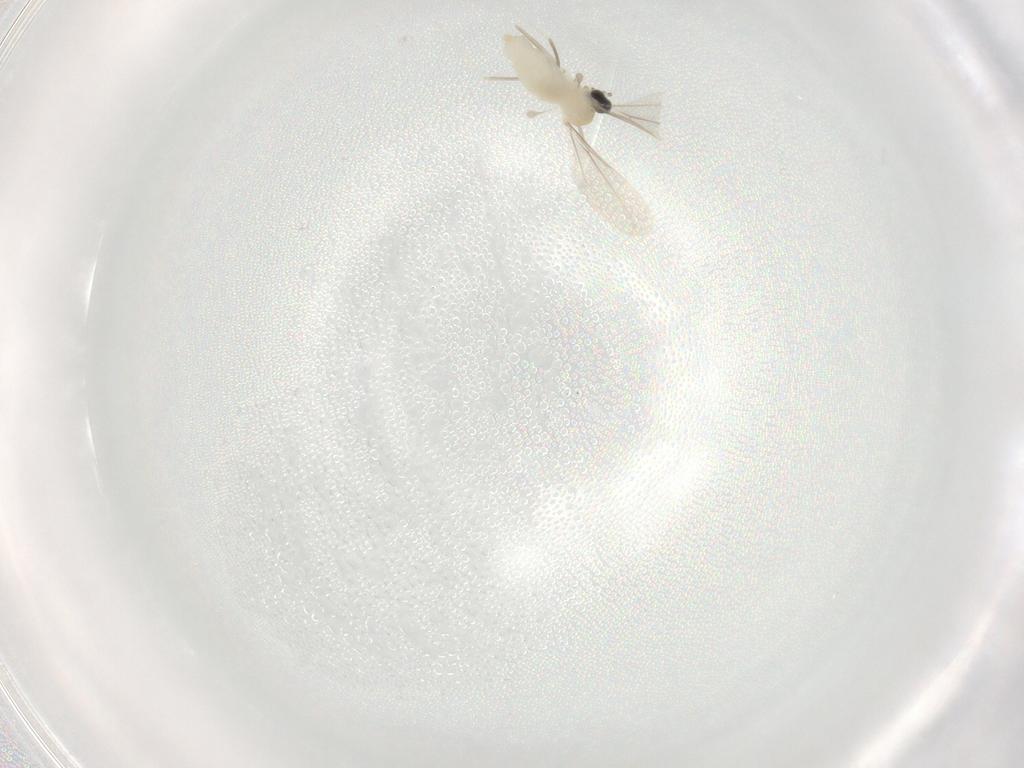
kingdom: Animalia
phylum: Arthropoda
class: Insecta
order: Diptera
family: Cecidomyiidae
